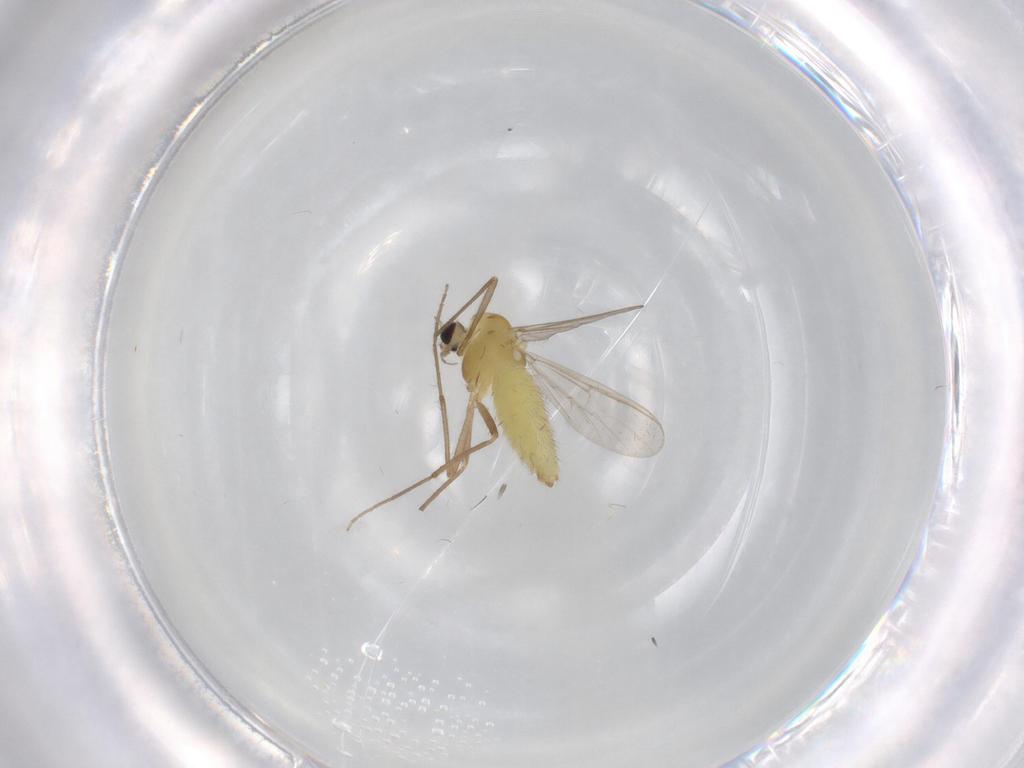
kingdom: Animalia
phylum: Arthropoda
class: Insecta
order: Diptera
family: Chironomidae
